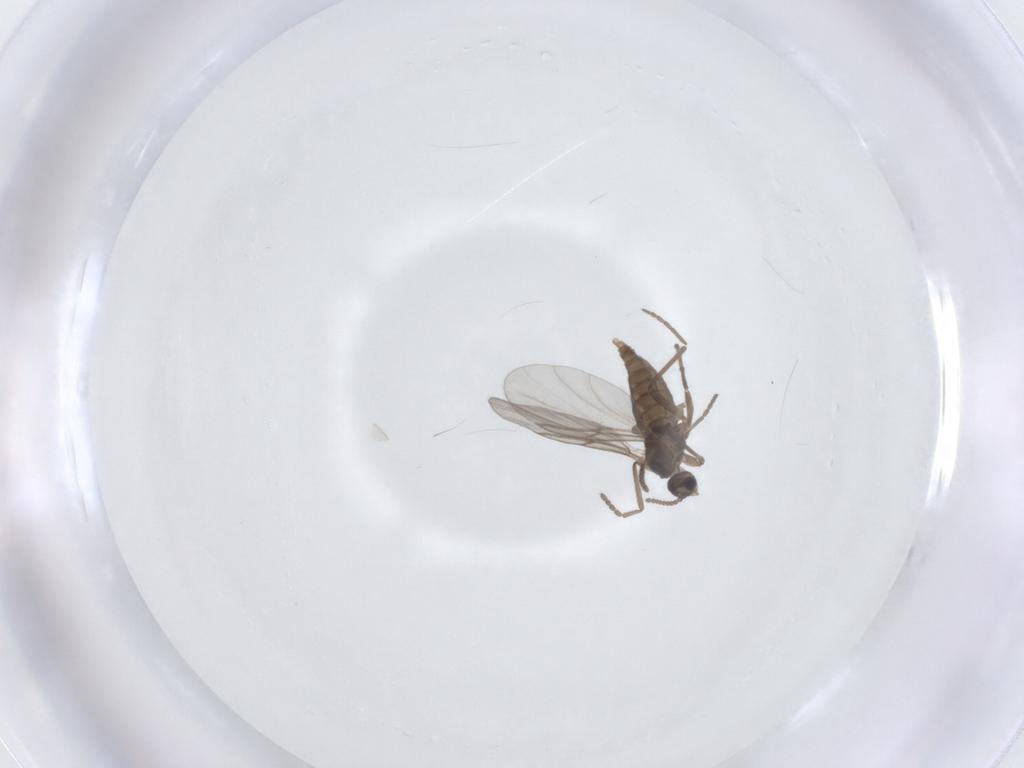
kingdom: Animalia
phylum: Arthropoda
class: Insecta
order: Diptera
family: Cecidomyiidae
